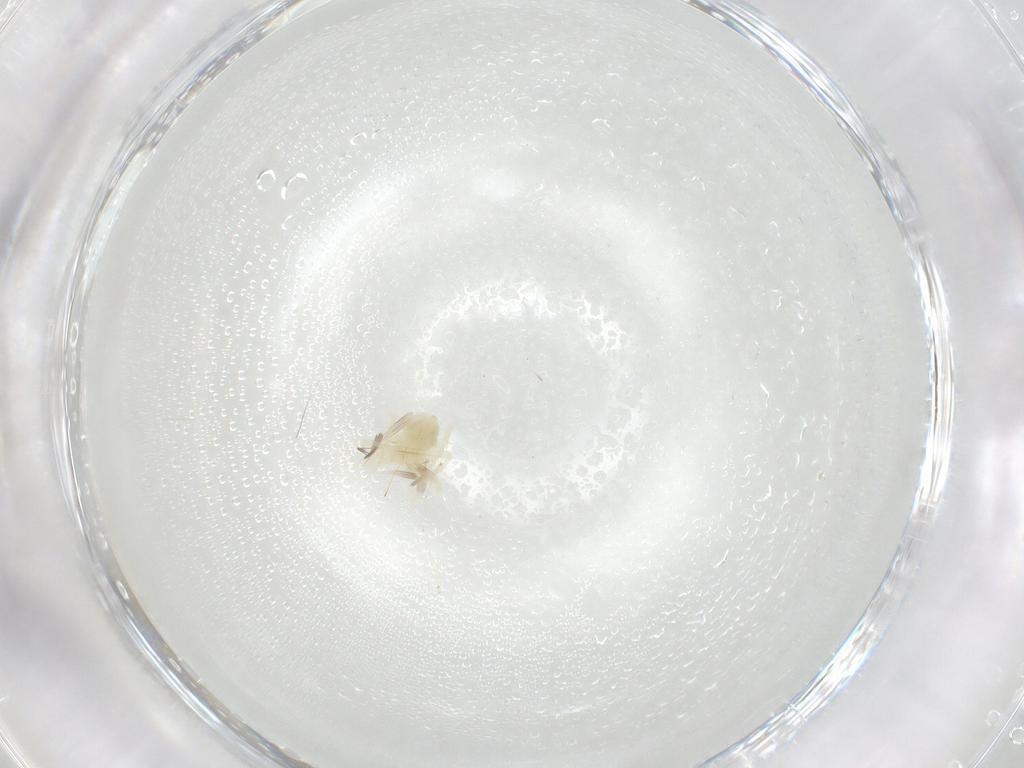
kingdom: Animalia
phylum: Arthropoda
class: Arachnida
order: Trombidiformes
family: Anystidae
